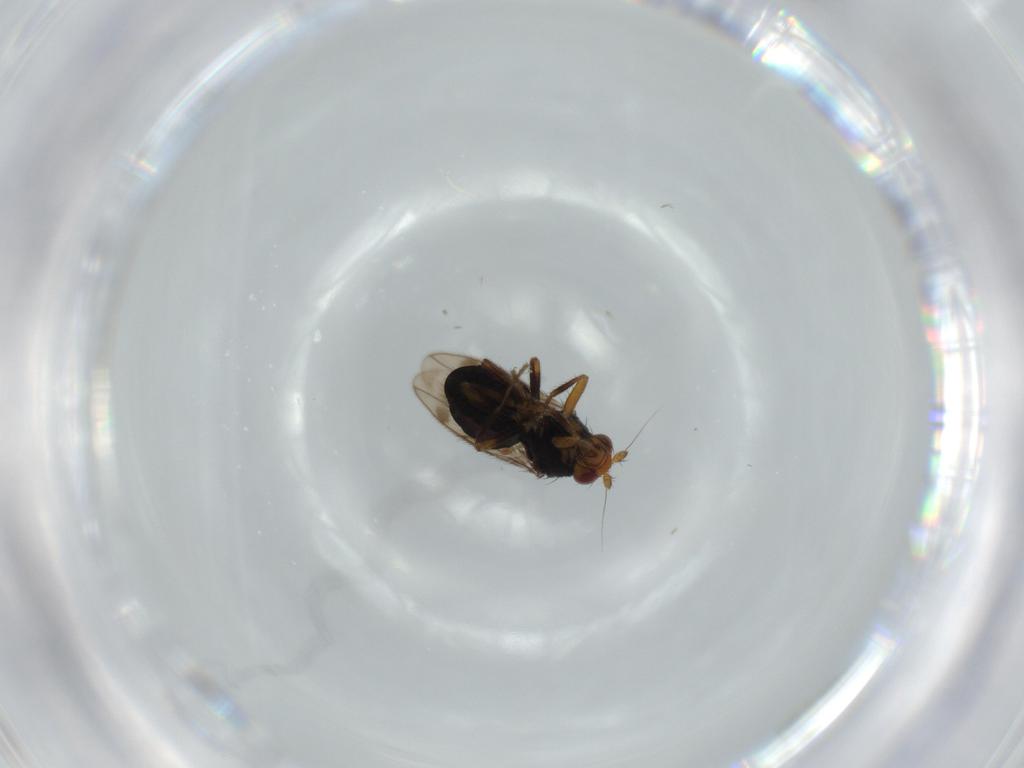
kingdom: Animalia
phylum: Arthropoda
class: Insecta
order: Diptera
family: Sphaeroceridae
